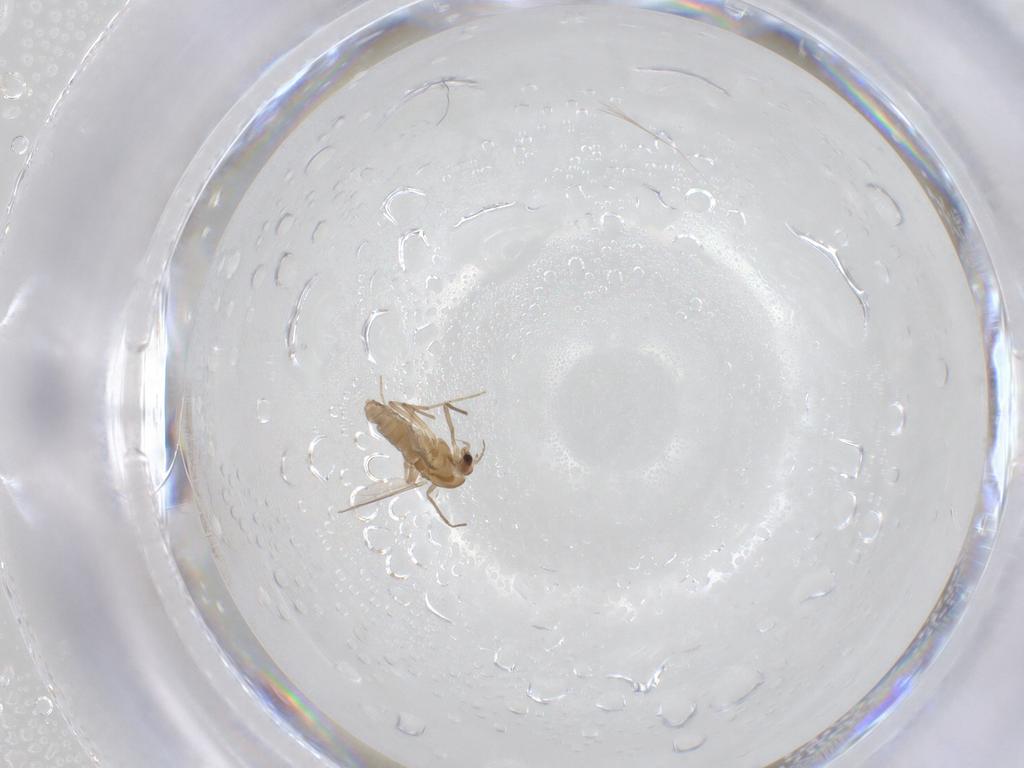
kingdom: Animalia
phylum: Arthropoda
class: Insecta
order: Diptera
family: Chironomidae
